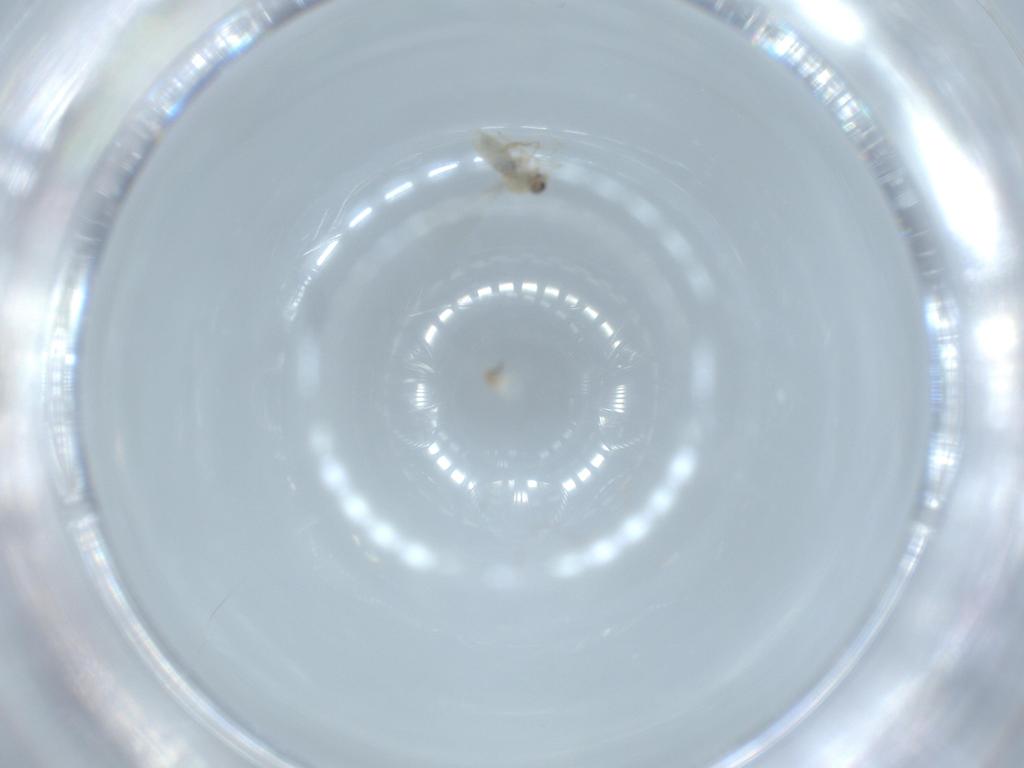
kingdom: Animalia
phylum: Arthropoda
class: Insecta
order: Diptera
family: Cecidomyiidae
